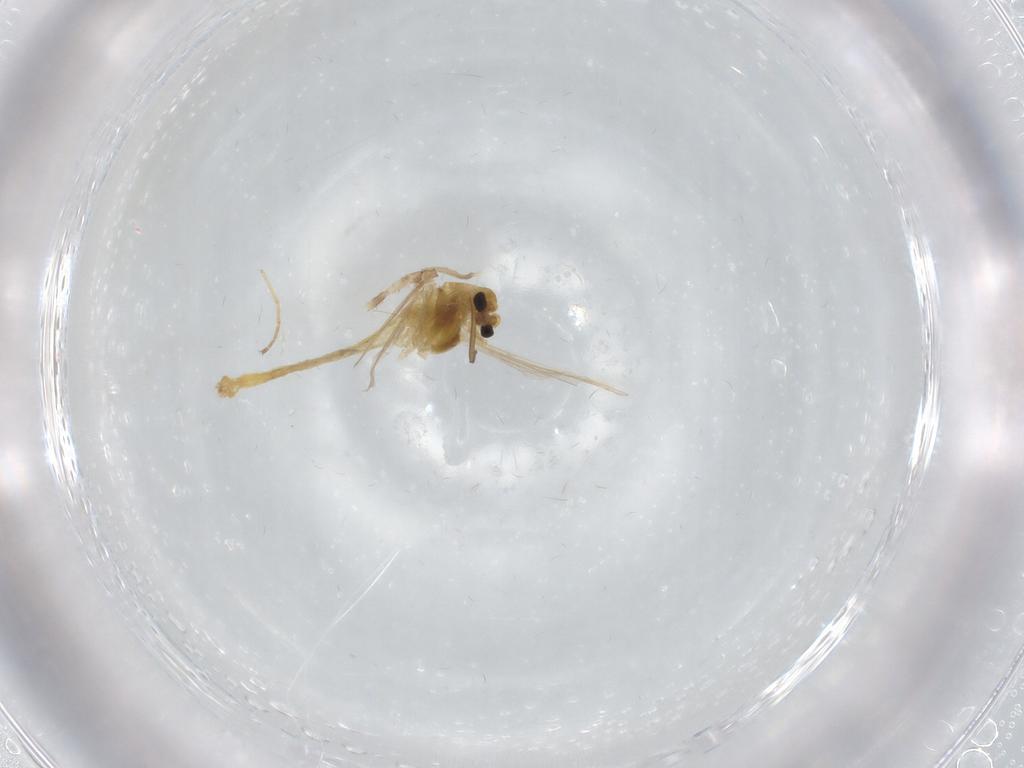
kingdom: Animalia
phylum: Arthropoda
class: Insecta
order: Diptera
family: Chironomidae
